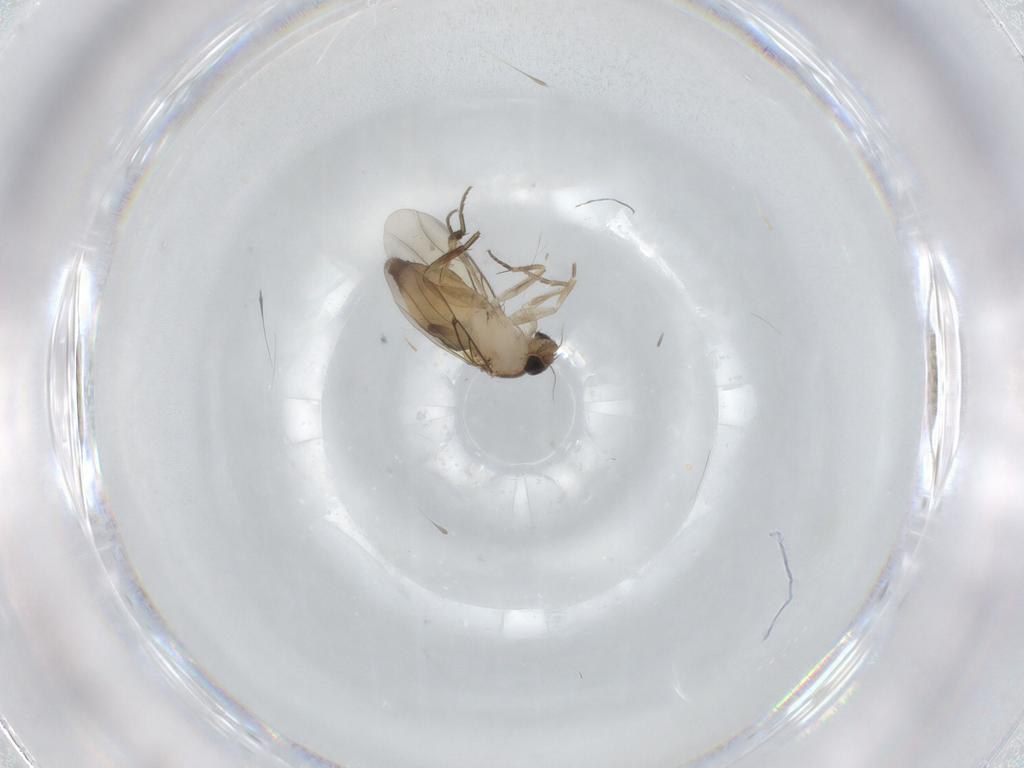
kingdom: Animalia
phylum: Arthropoda
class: Insecta
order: Diptera
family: Phoridae
